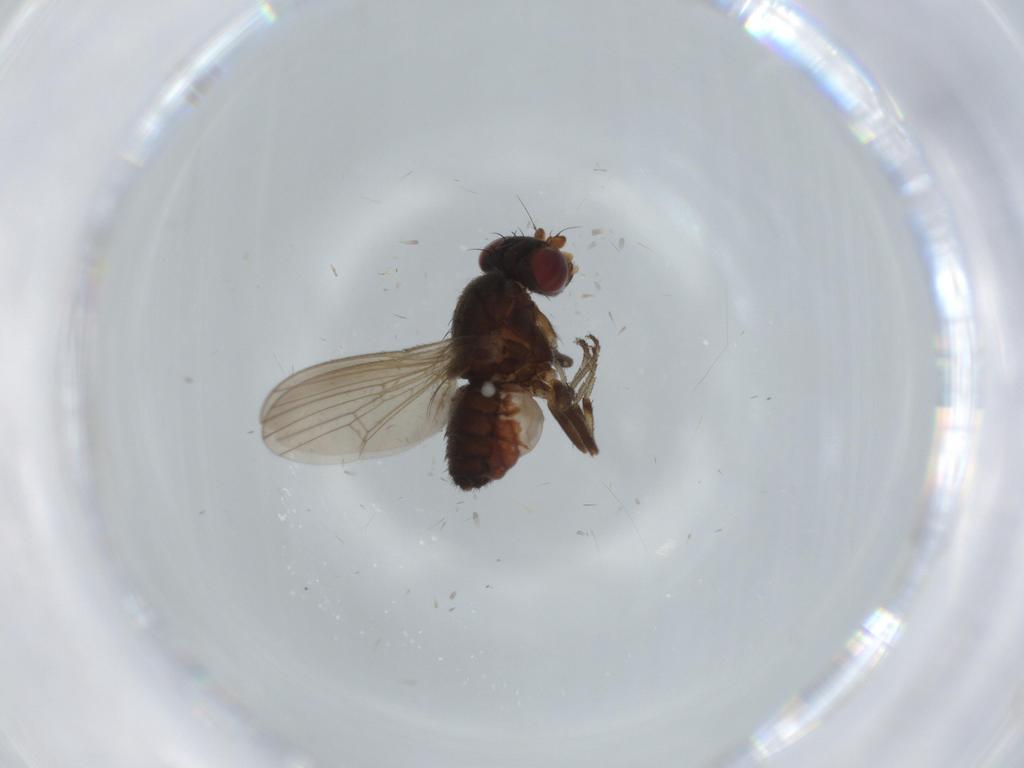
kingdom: Animalia
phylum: Arthropoda
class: Insecta
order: Diptera
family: Heleomyzidae
